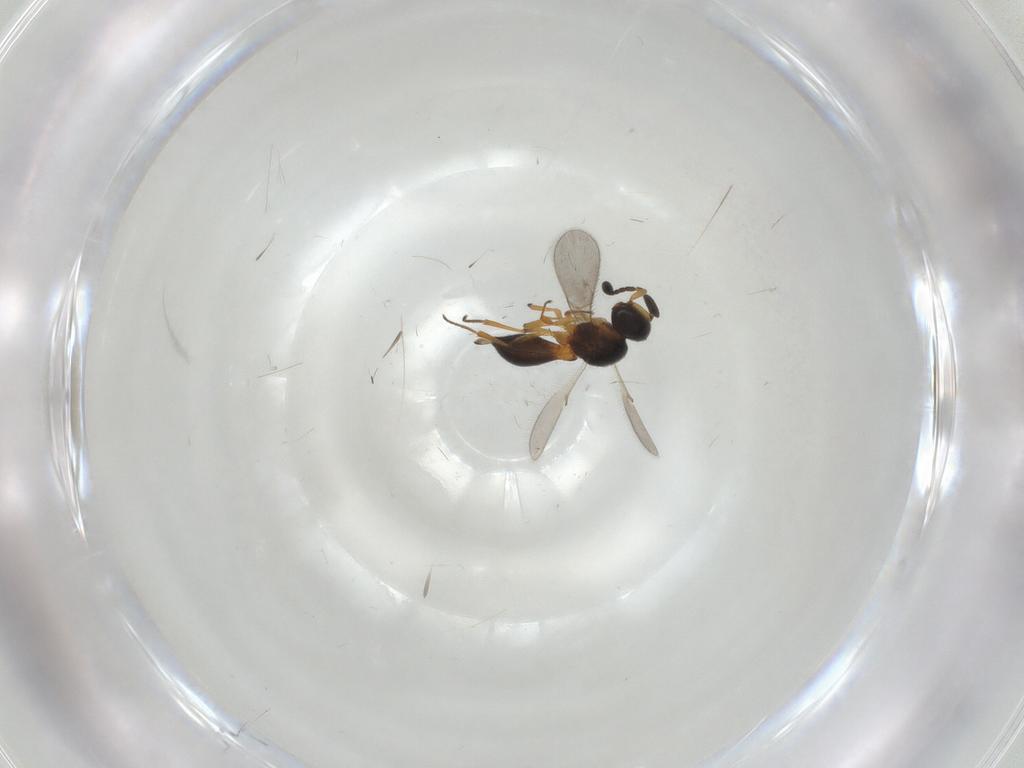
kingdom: Animalia
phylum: Arthropoda
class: Insecta
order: Hymenoptera
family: Scelionidae
